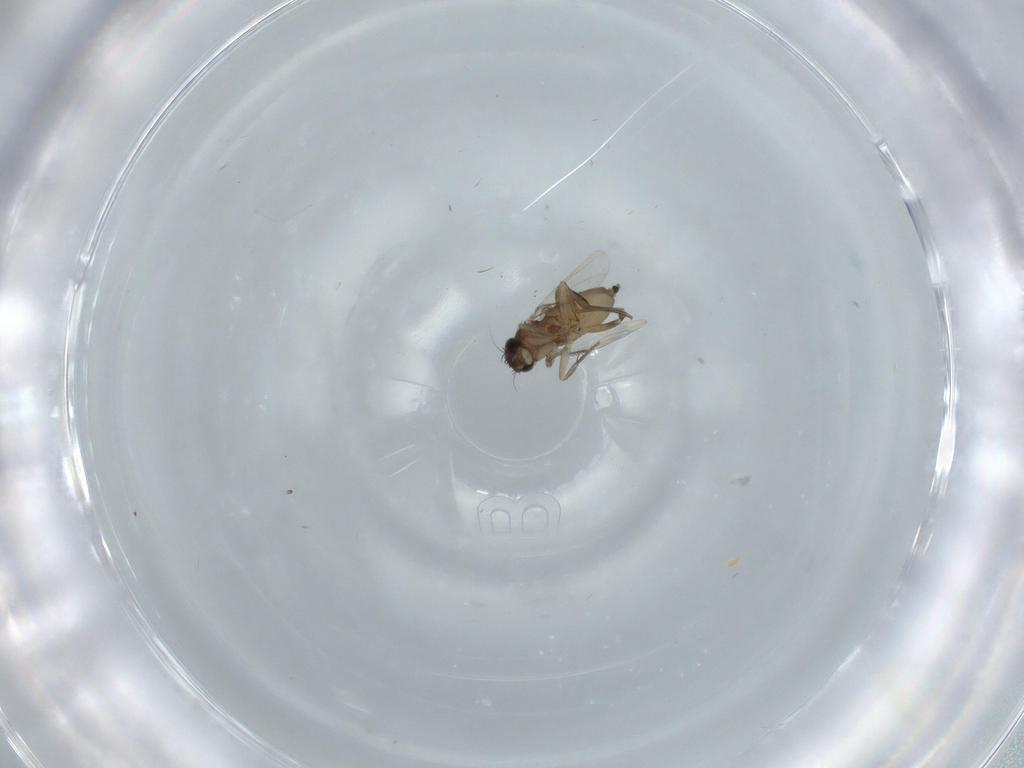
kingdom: Animalia
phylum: Arthropoda
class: Insecta
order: Diptera
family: Phoridae
